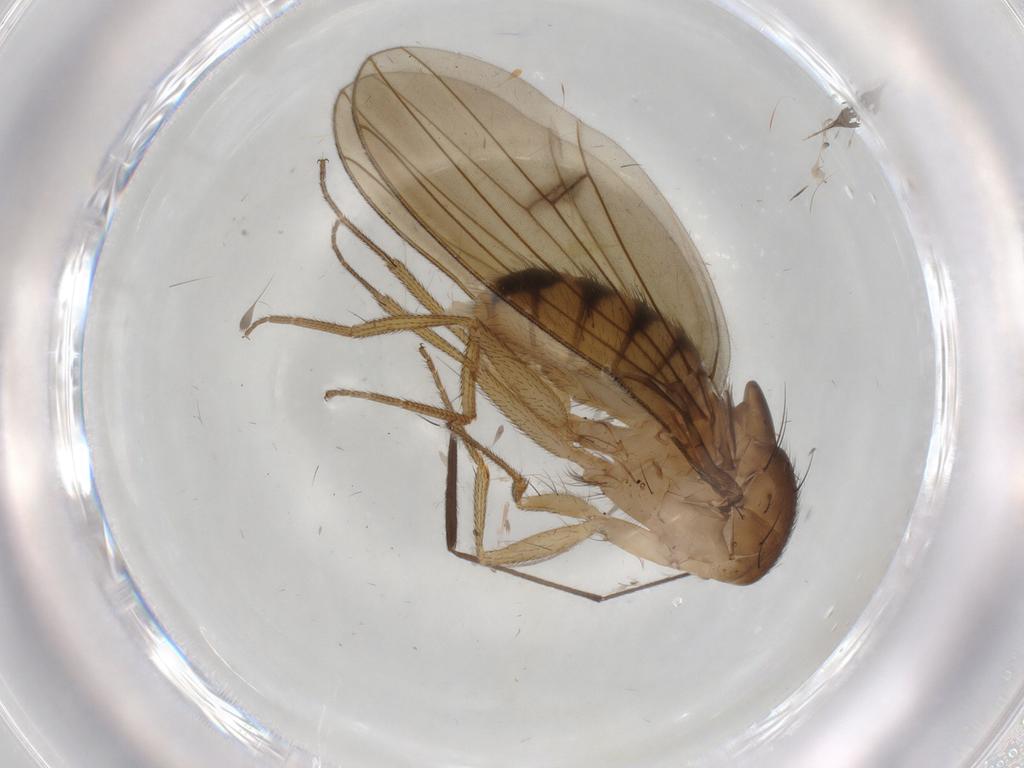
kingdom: Animalia
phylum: Arthropoda
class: Insecta
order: Diptera
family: Drosophilidae
